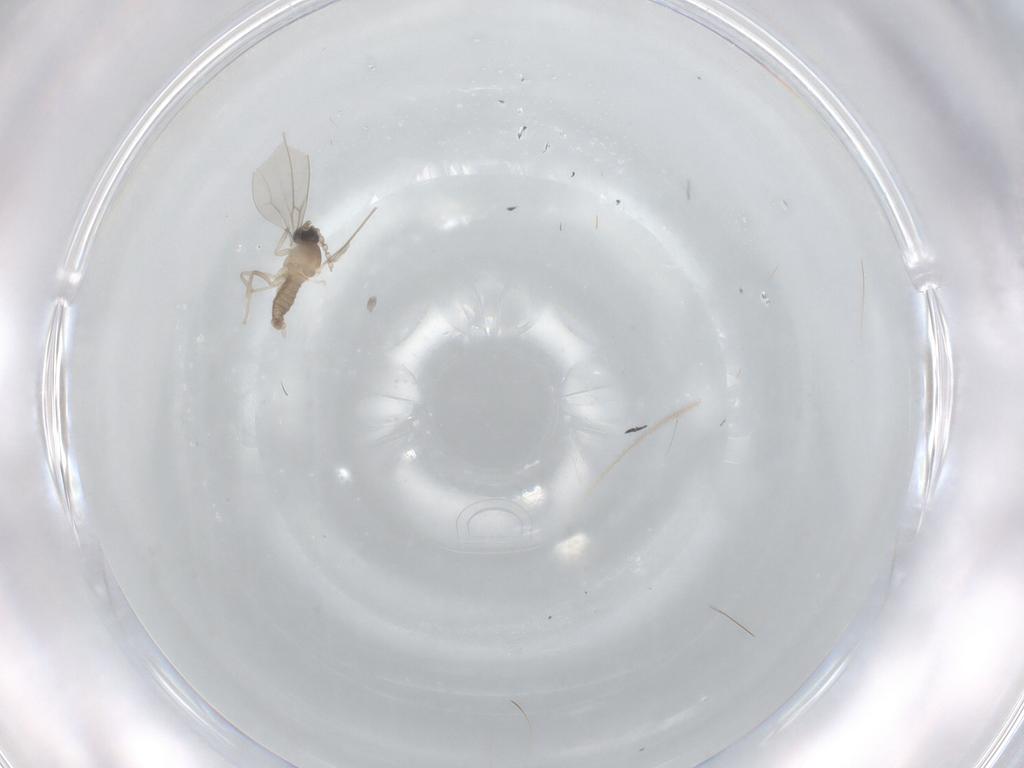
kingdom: Animalia
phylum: Arthropoda
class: Insecta
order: Diptera
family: Cecidomyiidae
